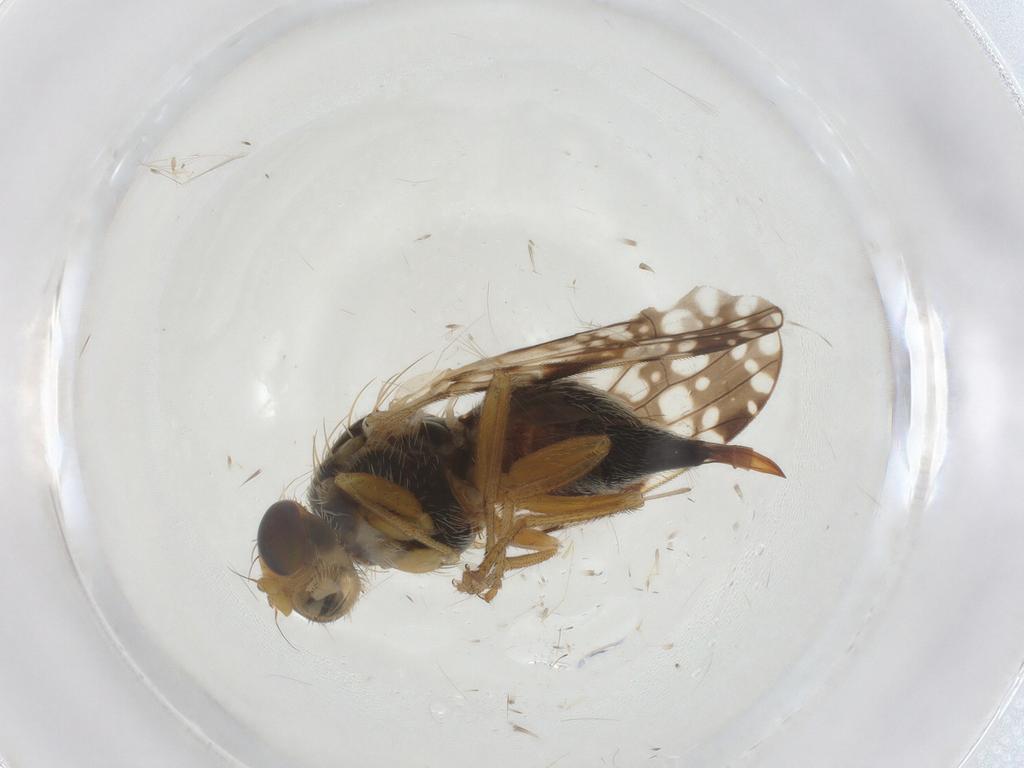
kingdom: Animalia
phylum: Arthropoda
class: Insecta
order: Diptera
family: Tephritidae
